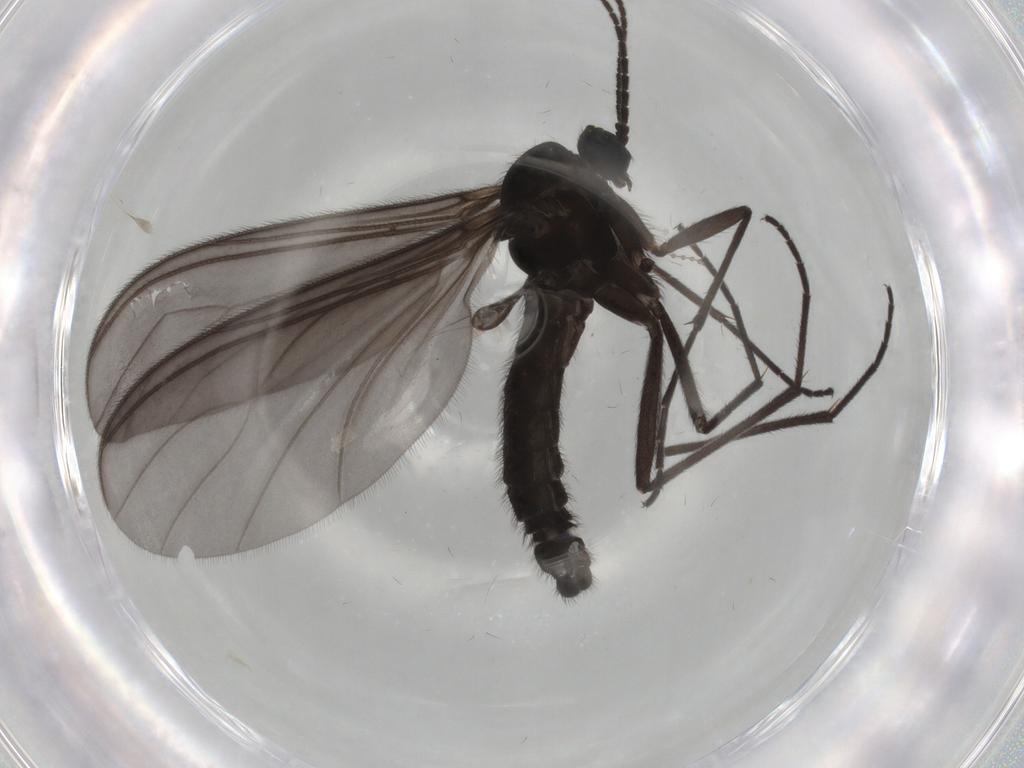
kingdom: Animalia
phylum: Arthropoda
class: Insecta
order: Diptera
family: Sciaridae
